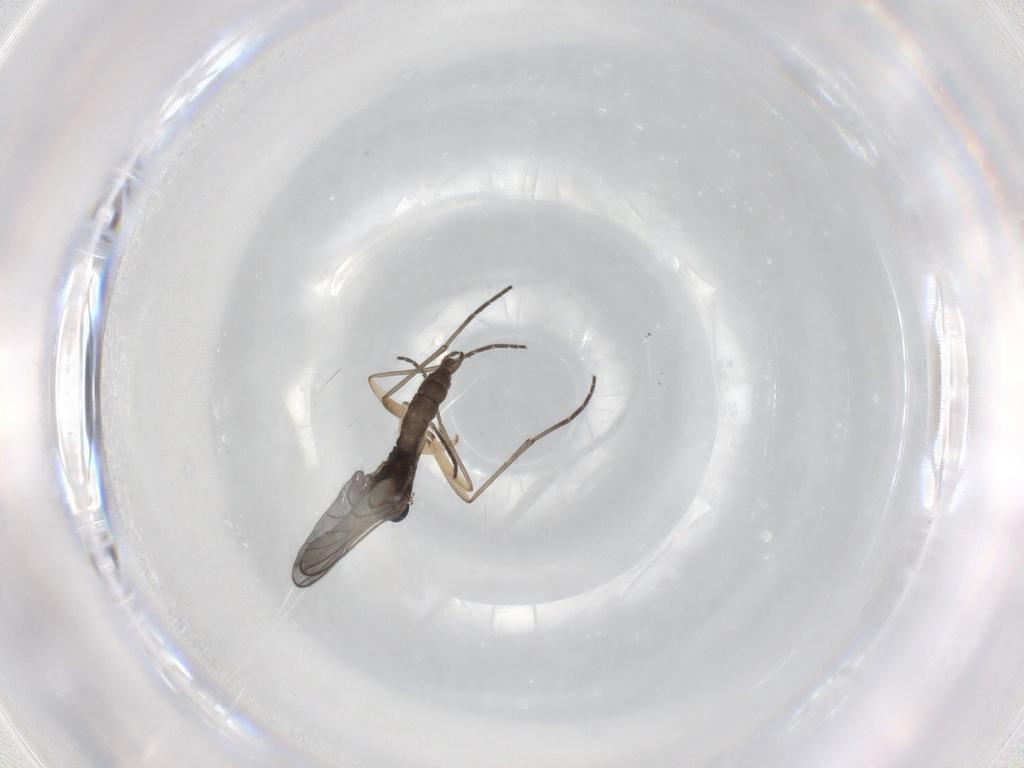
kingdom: Animalia
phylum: Arthropoda
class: Insecta
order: Diptera
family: Sciaridae
